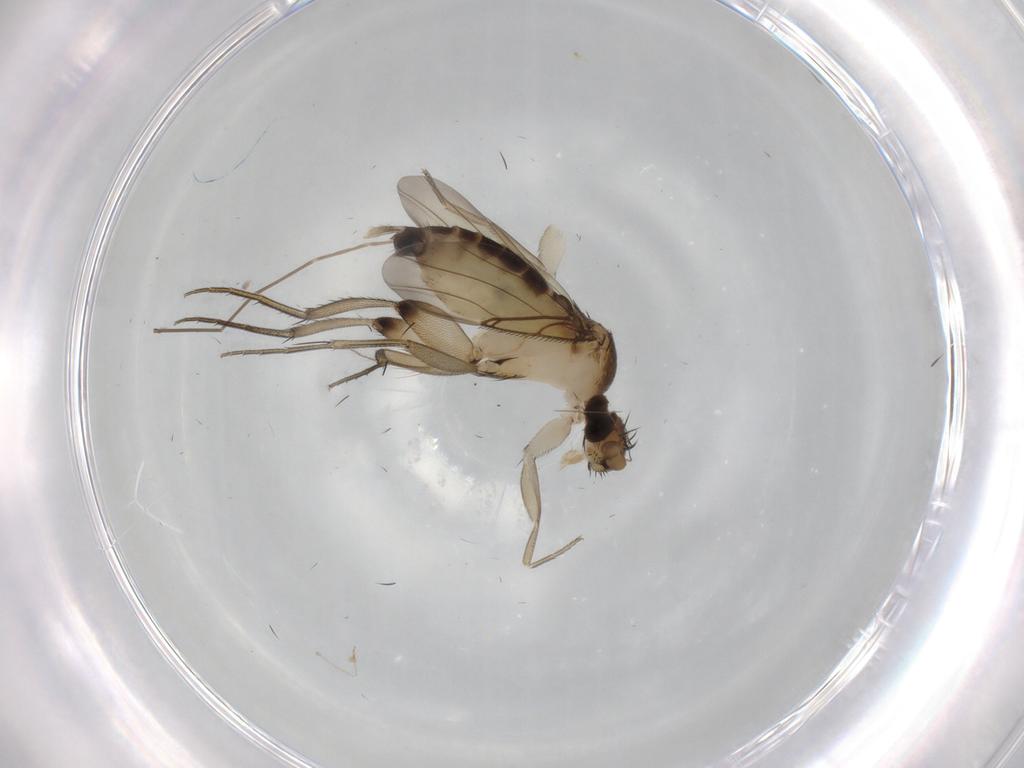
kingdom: Animalia
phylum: Arthropoda
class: Insecta
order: Diptera
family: Phoridae
